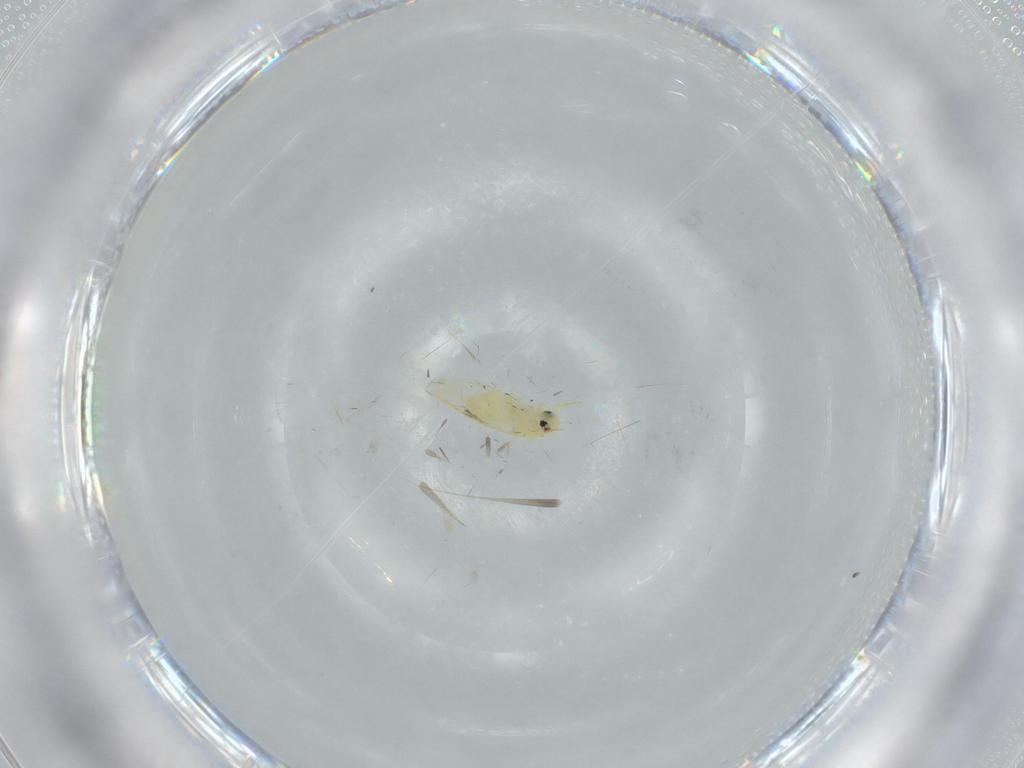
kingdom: Animalia
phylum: Arthropoda
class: Insecta
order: Hemiptera
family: Aleyrodidae
